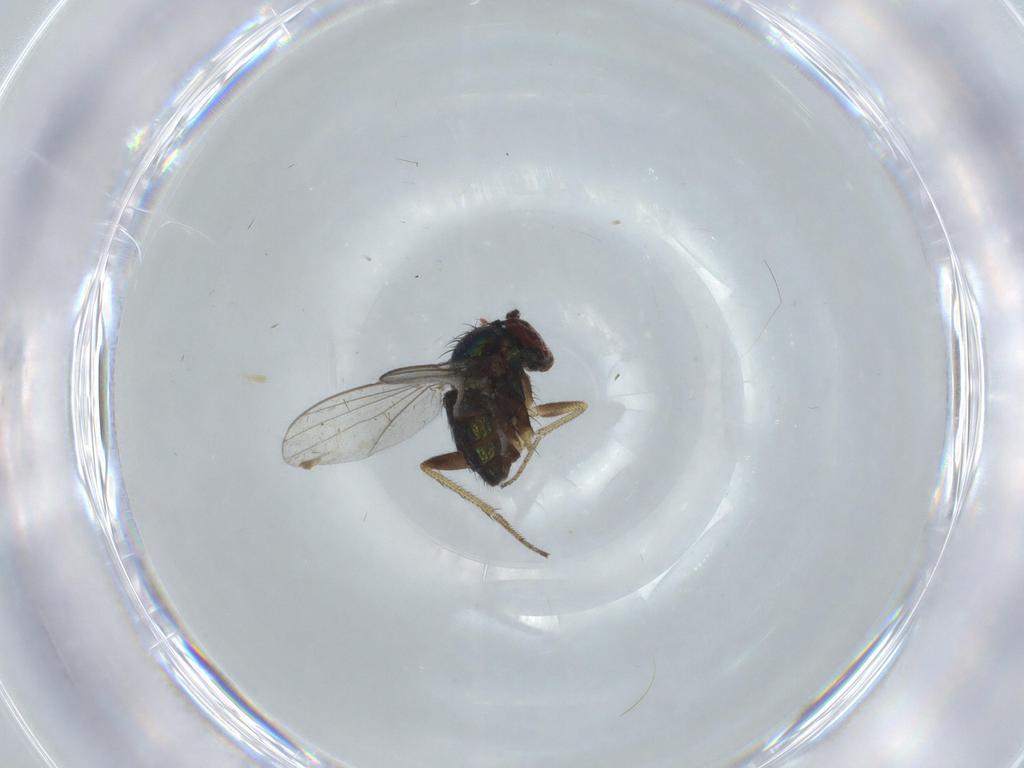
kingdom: Animalia
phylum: Arthropoda
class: Insecta
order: Diptera
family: Sciaridae
